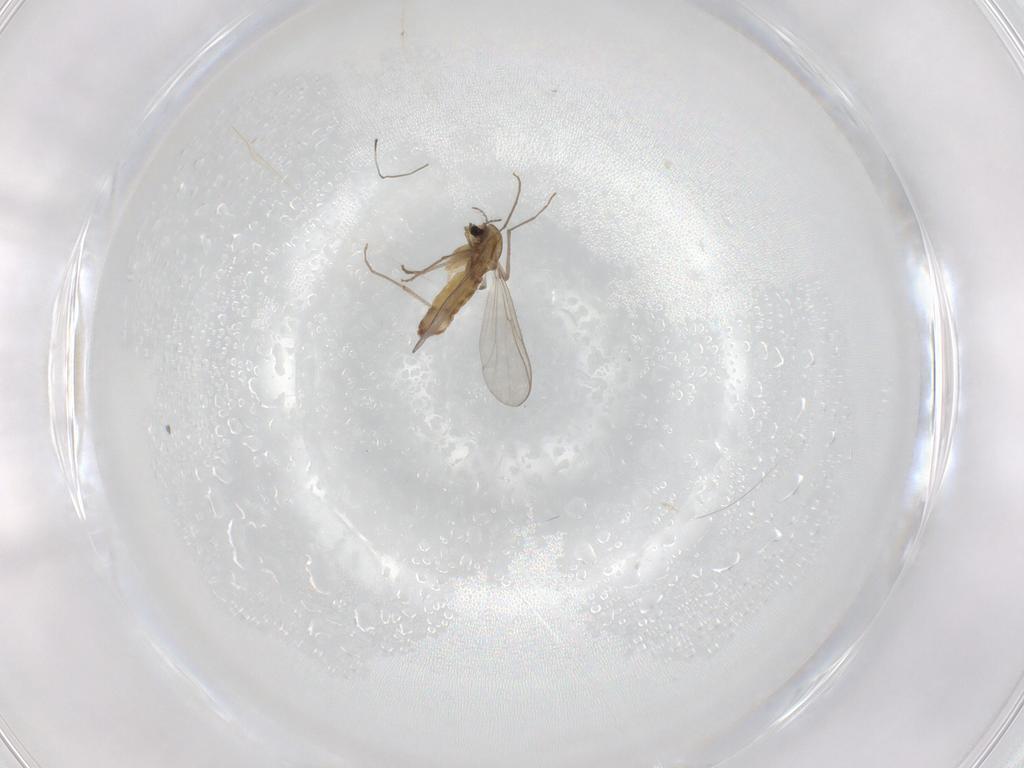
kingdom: Animalia
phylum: Arthropoda
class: Insecta
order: Diptera
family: Chironomidae
